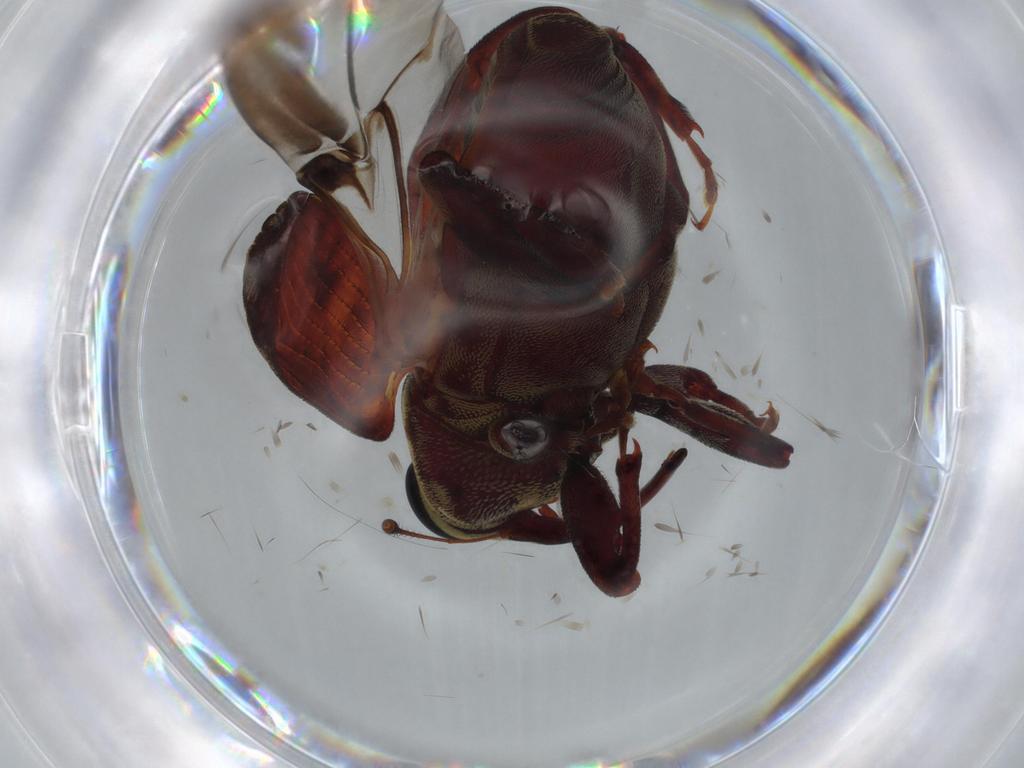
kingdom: Animalia
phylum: Arthropoda
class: Insecta
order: Coleoptera
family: Curculionidae
